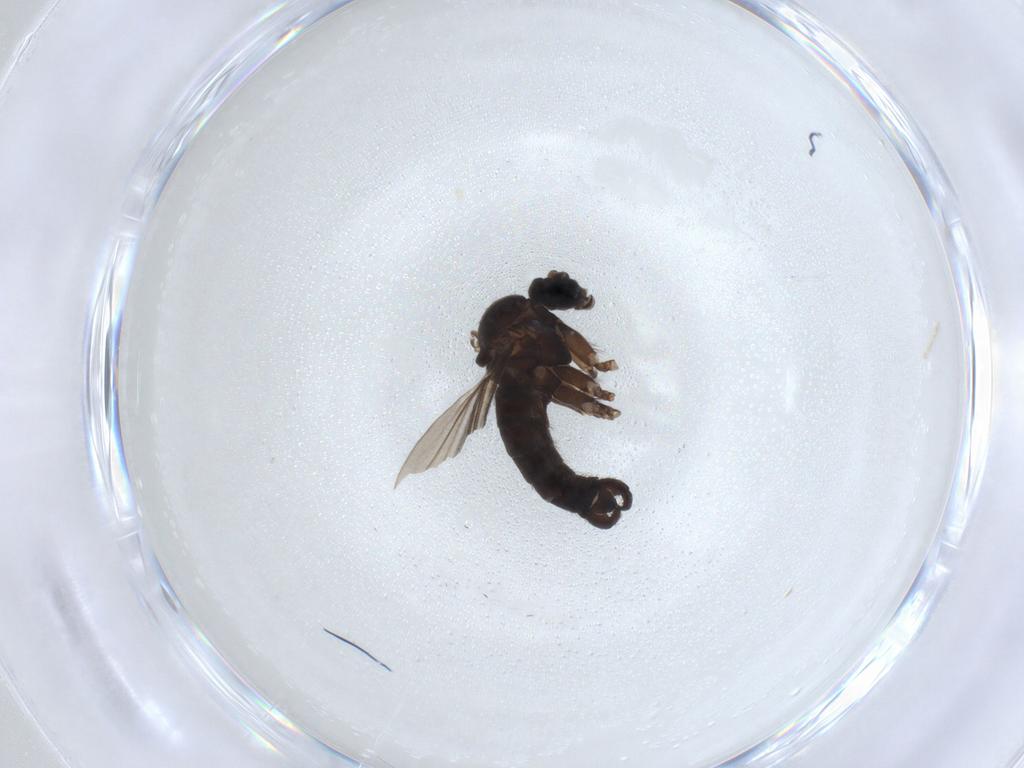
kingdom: Animalia
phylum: Arthropoda
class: Insecta
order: Diptera
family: Sciaridae
